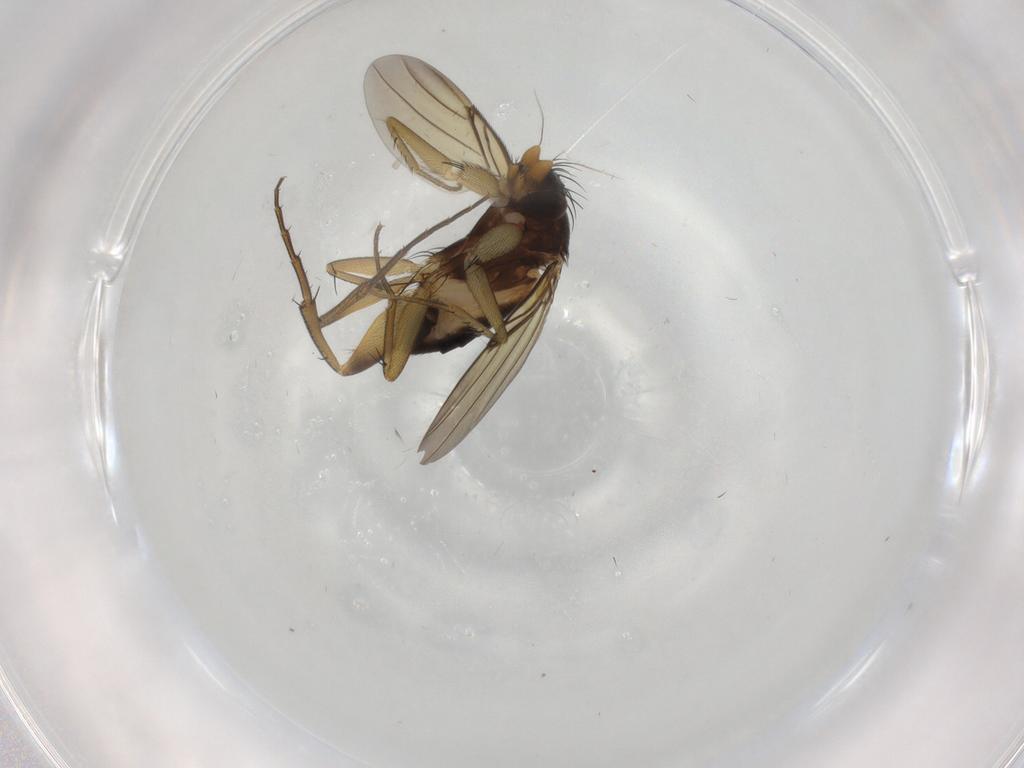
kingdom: Animalia
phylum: Arthropoda
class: Insecta
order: Diptera
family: Phoridae
